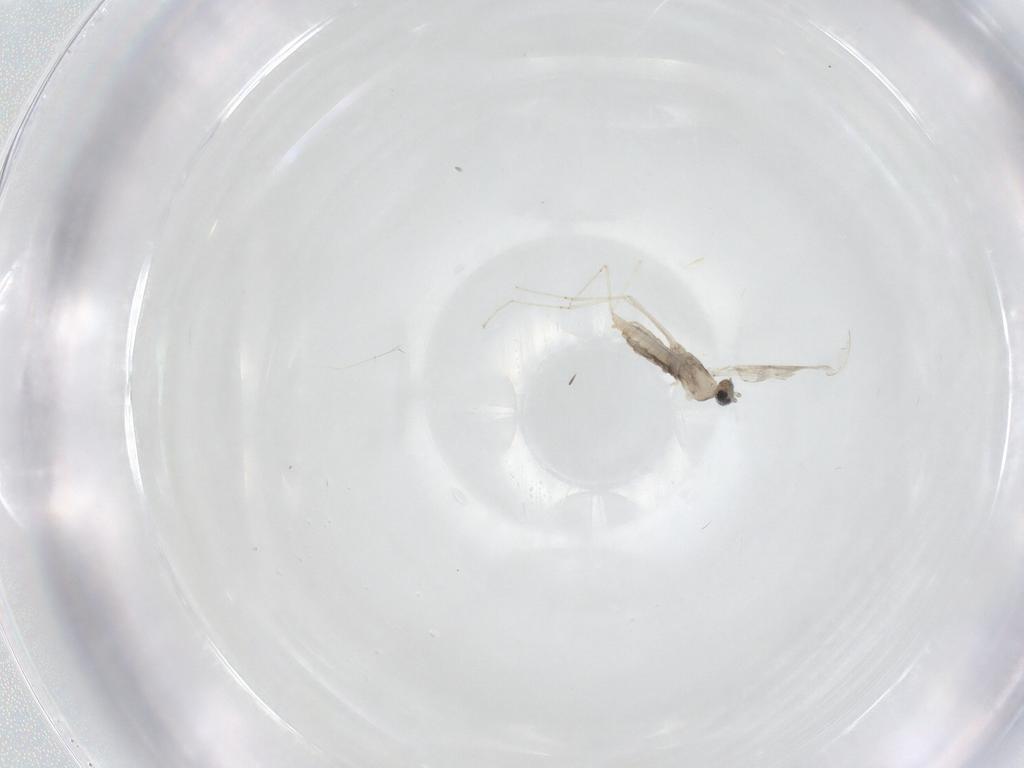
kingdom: Animalia
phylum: Arthropoda
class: Insecta
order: Diptera
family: Cecidomyiidae
